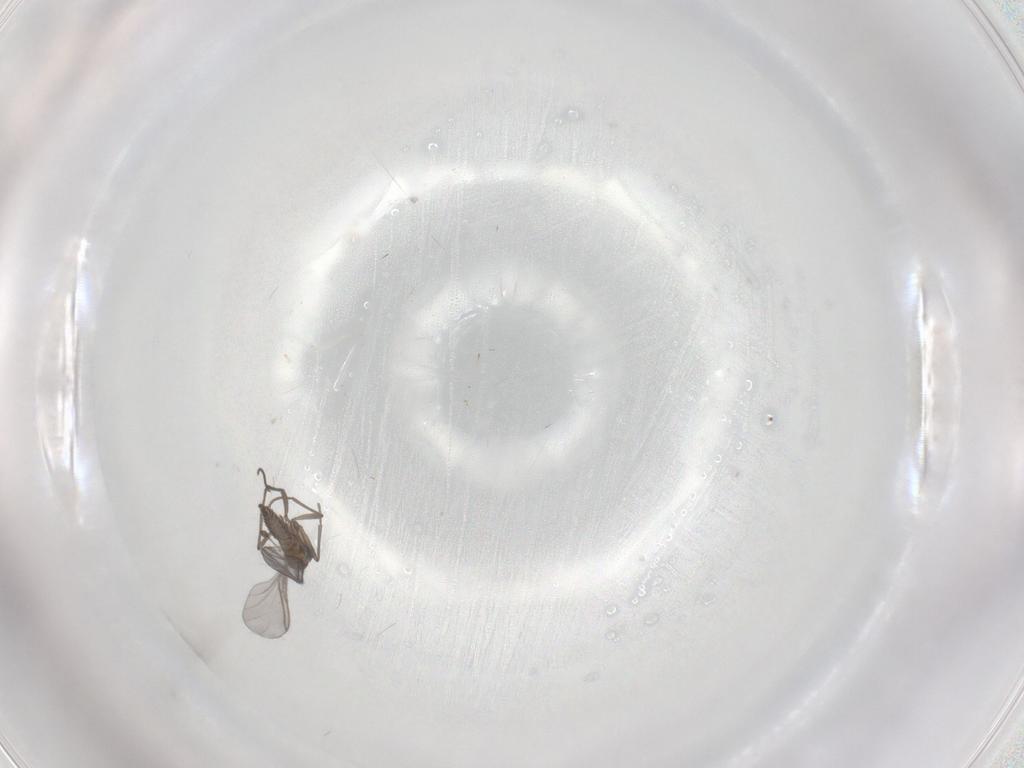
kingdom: Animalia
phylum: Arthropoda
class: Insecta
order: Diptera
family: Sciaridae
